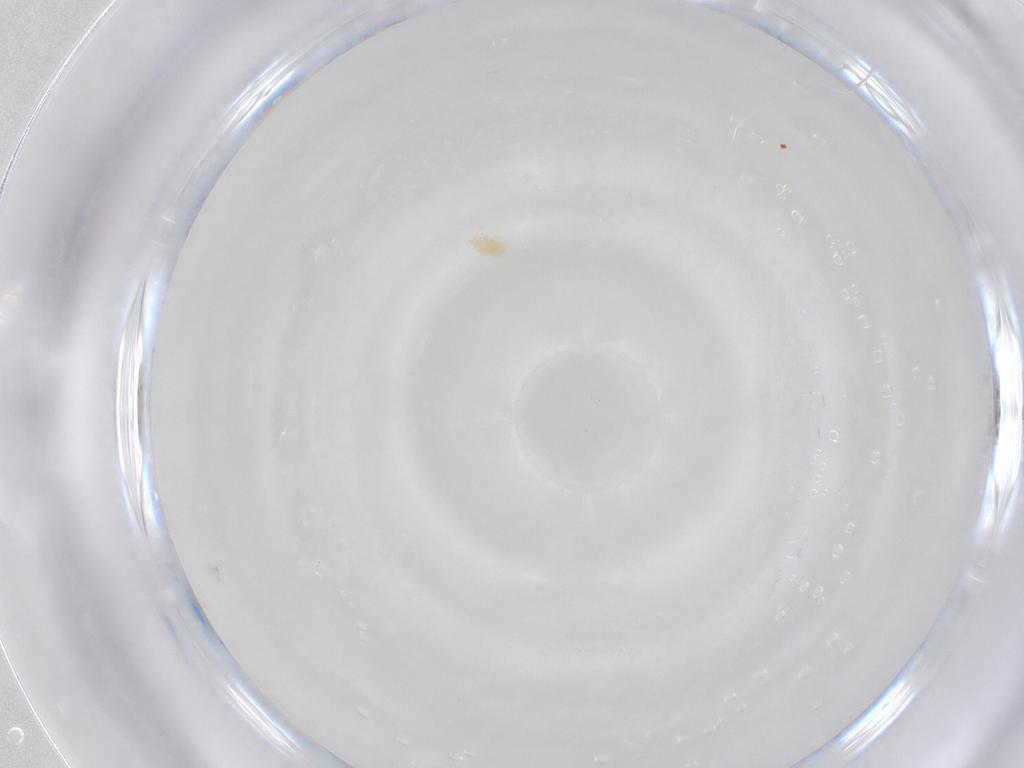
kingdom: Animalia
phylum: Arthropoda
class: Arachnida
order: Trombidiformes
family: Eupodidae
